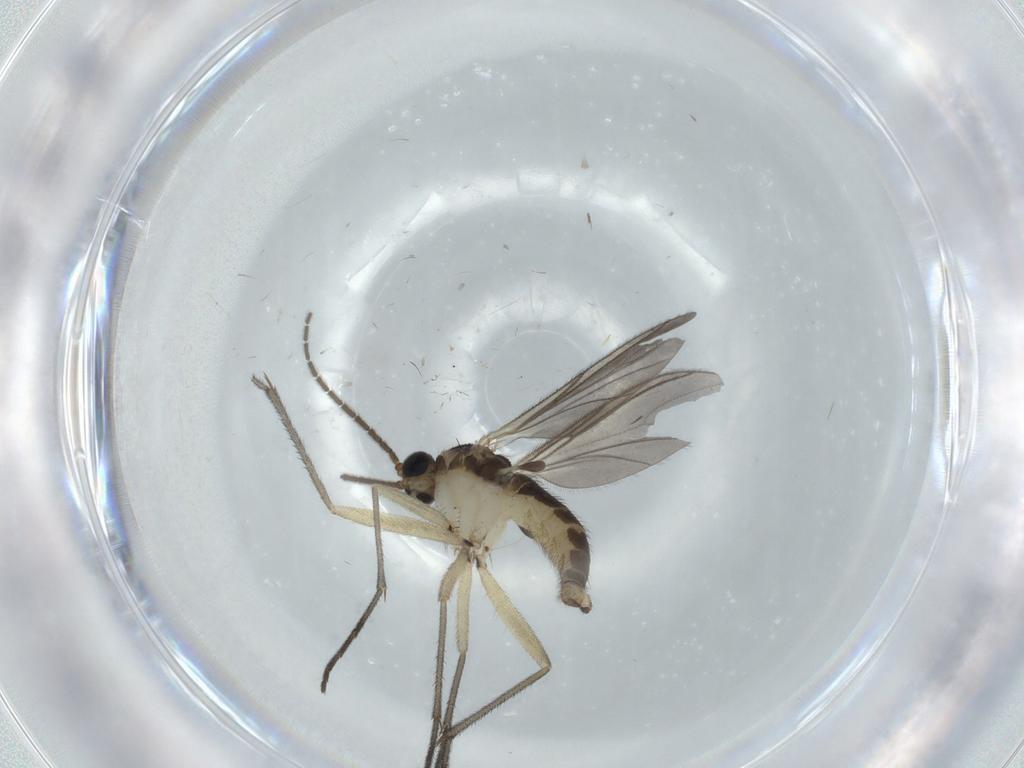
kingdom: Animalia
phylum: Arthropoda
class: Insecta
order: Diptera
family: Sciaridae
